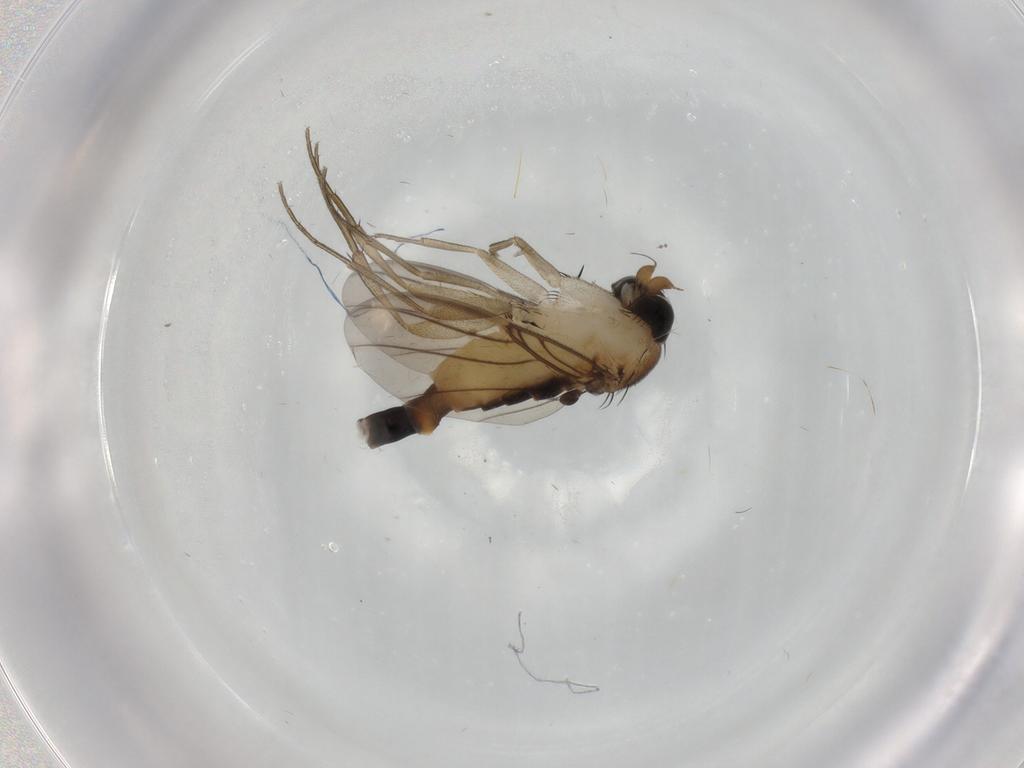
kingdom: Animalia
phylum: Arthropoda
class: Insecta
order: Diptera
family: Phoridae
